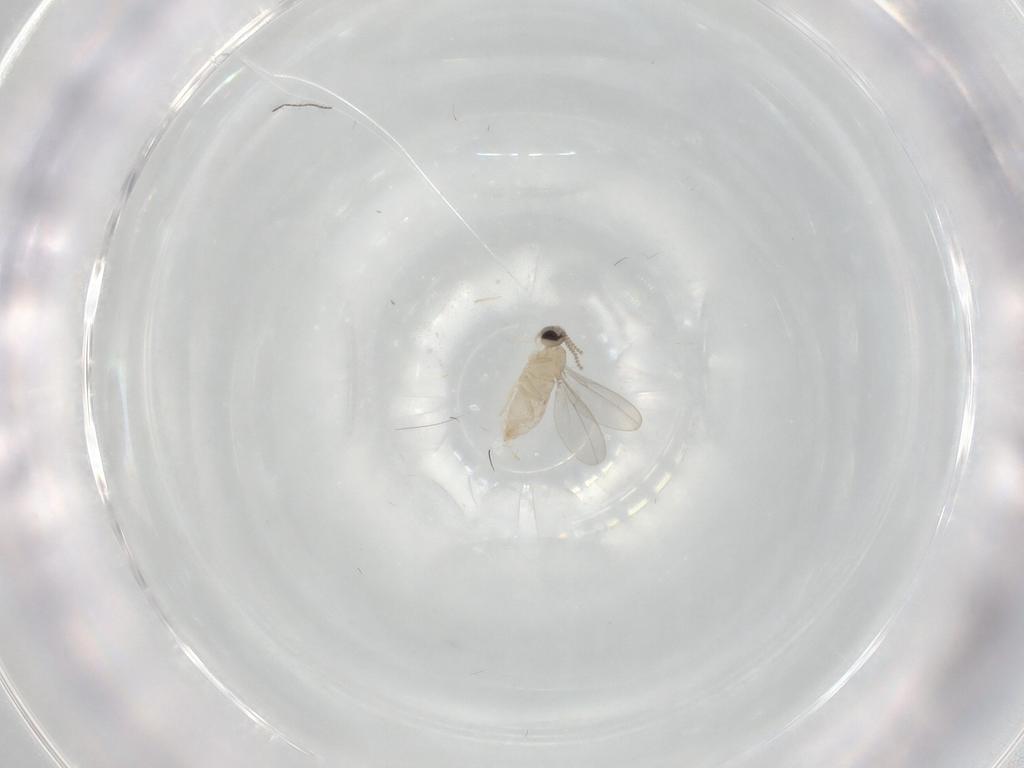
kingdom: Animalia
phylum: Arthropoda
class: Insecta
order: Diptera
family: Cecidomyiidae
